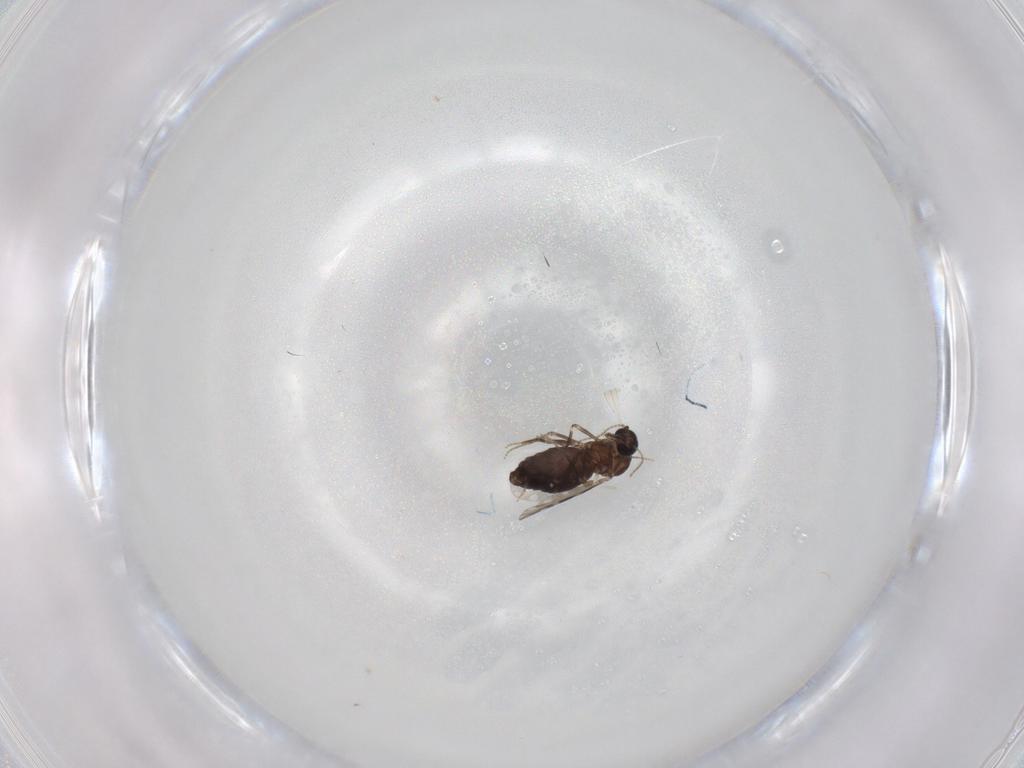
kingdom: Animalia
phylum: Arthropoda
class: Insecta
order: Diptera
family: Ceratopogonidae
